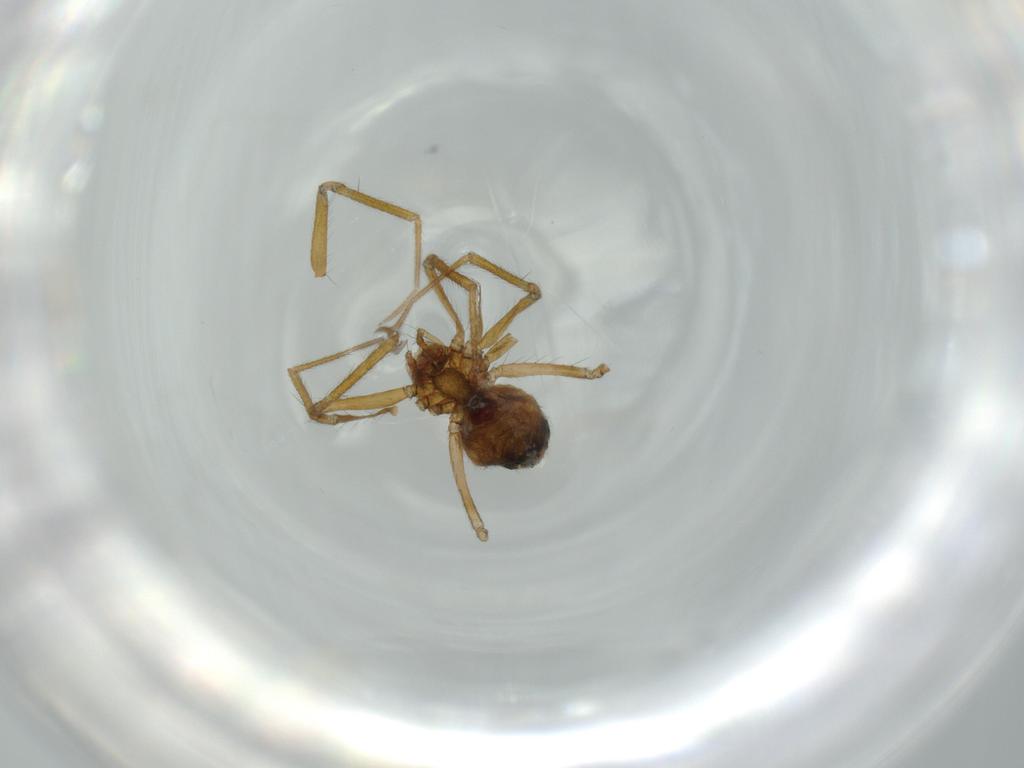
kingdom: Animalia
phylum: Arthropoda
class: Arachnida
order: Araneae
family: Linyphiidae
